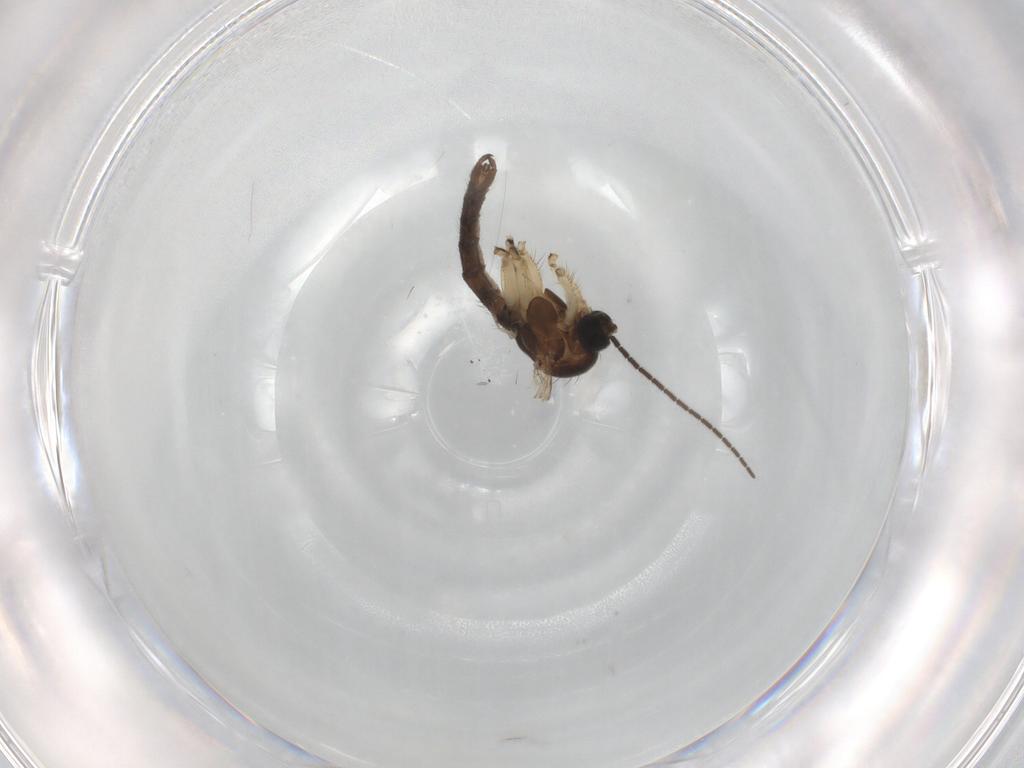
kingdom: Animalia
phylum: Arthropoda
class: Insecta
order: Diptera
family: Sciaridae
